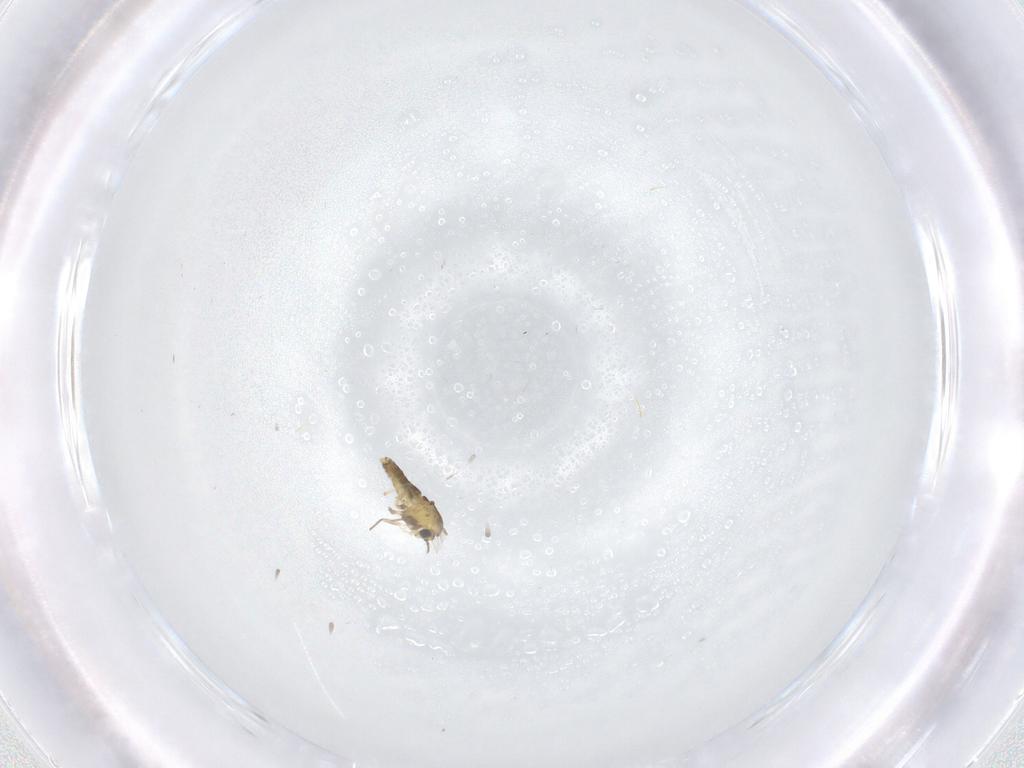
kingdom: Animalia
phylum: Arthropoda
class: Insecta
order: Diptera
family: Chironomidae
